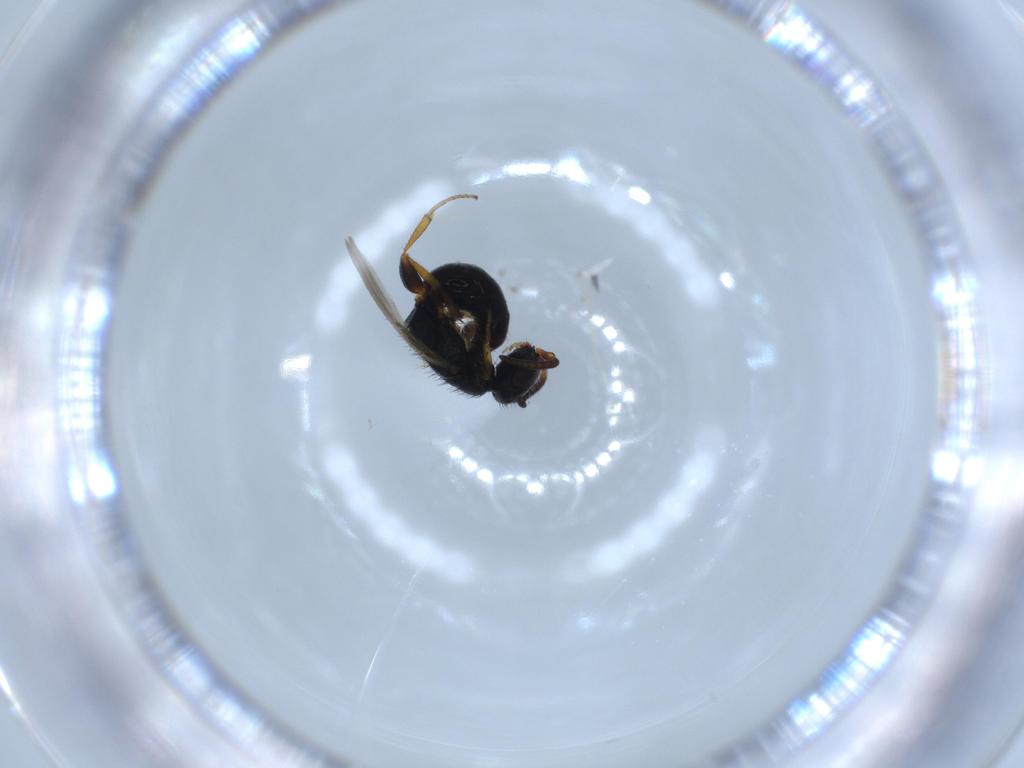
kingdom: Animalia
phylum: Arthropoda
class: Insecta
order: Hymenoptera
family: Bethylidae
